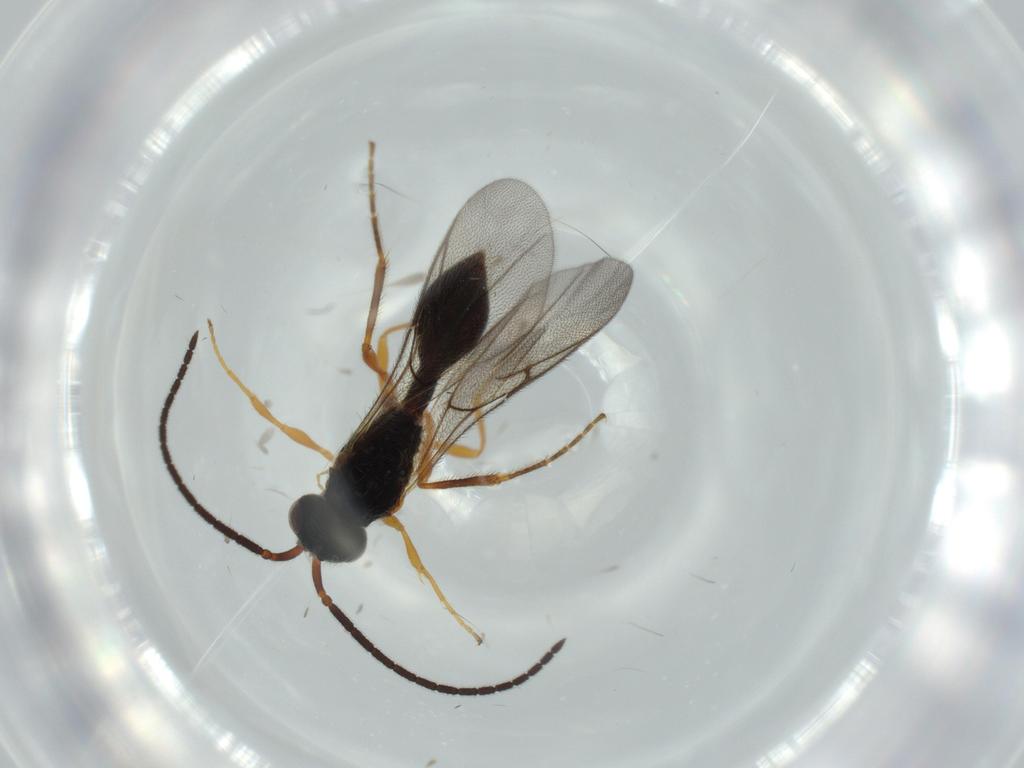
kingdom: Animalia
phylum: Arthropoda
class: Insecta
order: Hymenoptera
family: Diapriidae
